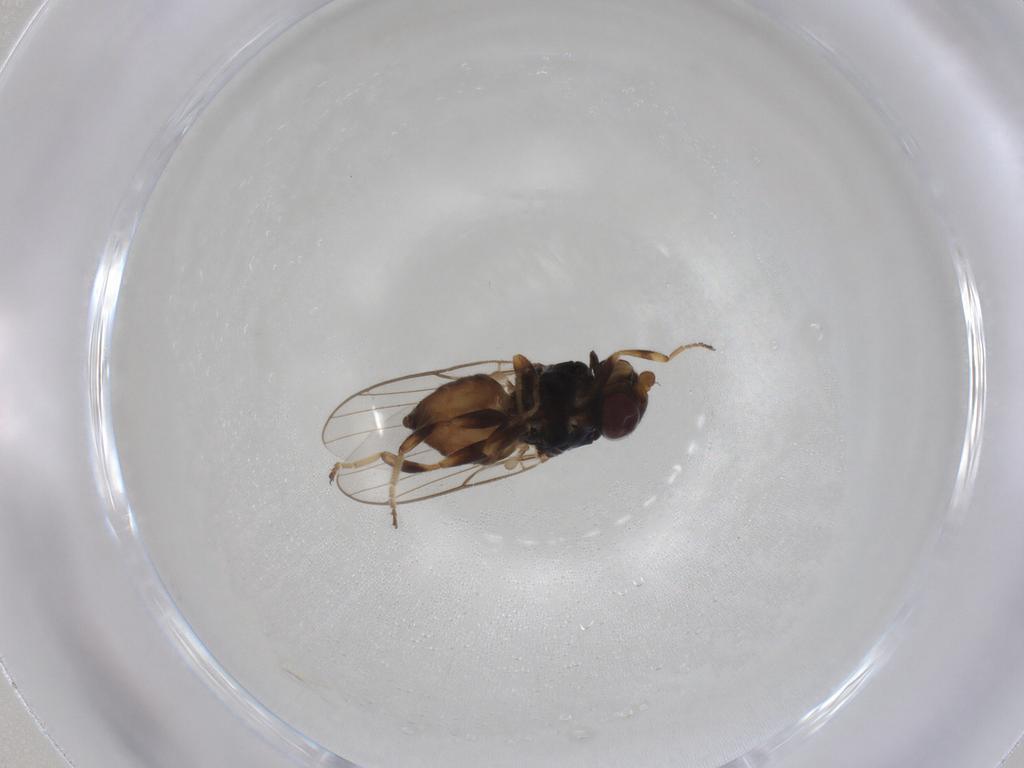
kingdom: Animalia
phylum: Arthropoda
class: Insecta
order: Diptera
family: Chloropidae
